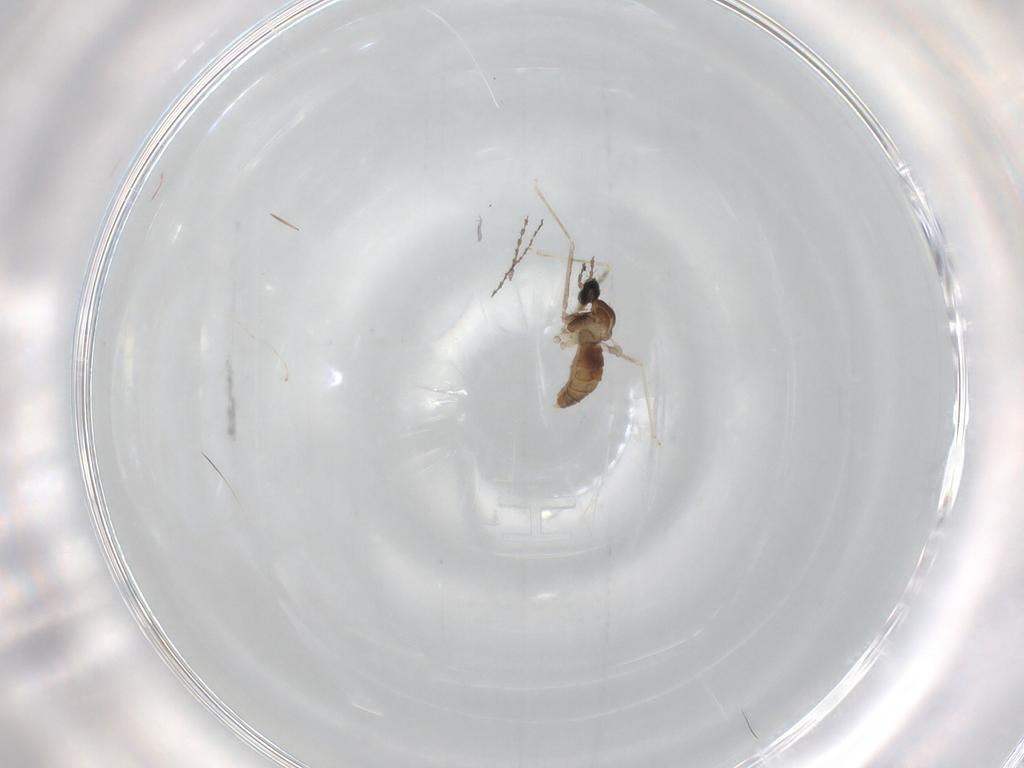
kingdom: Animalia
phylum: Arthropoda
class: Insecta
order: Diptera
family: Cecidomyiidae
